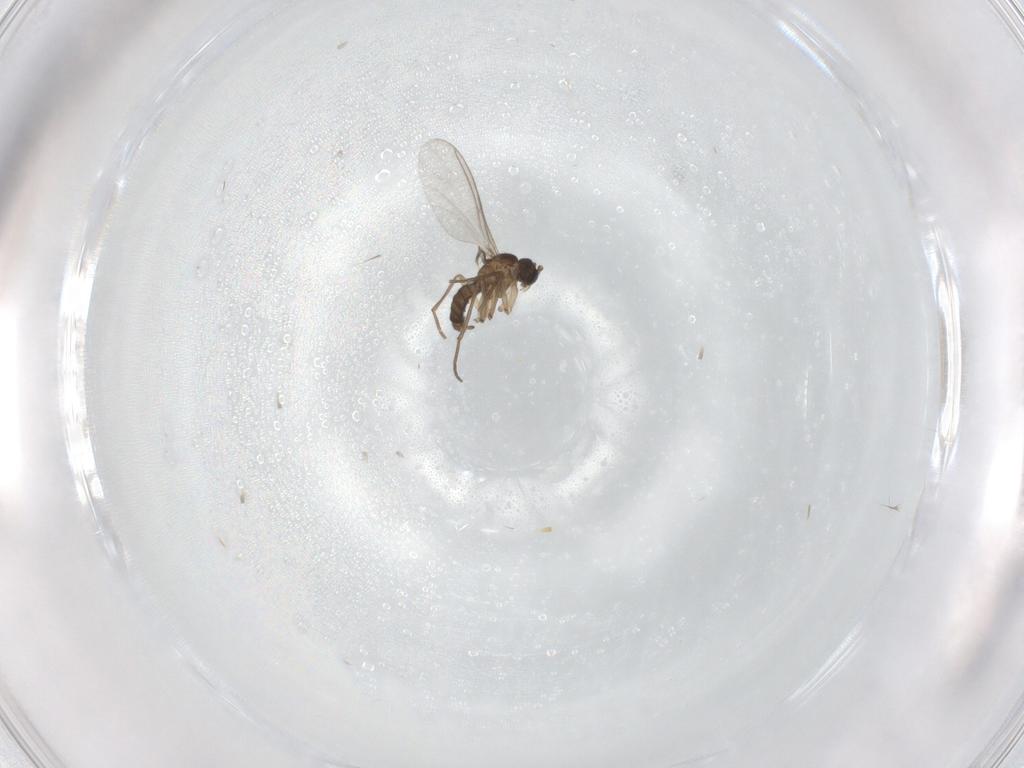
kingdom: Animalia
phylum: Arthropoda
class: Insecta
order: Diptera
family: Sciaridae
